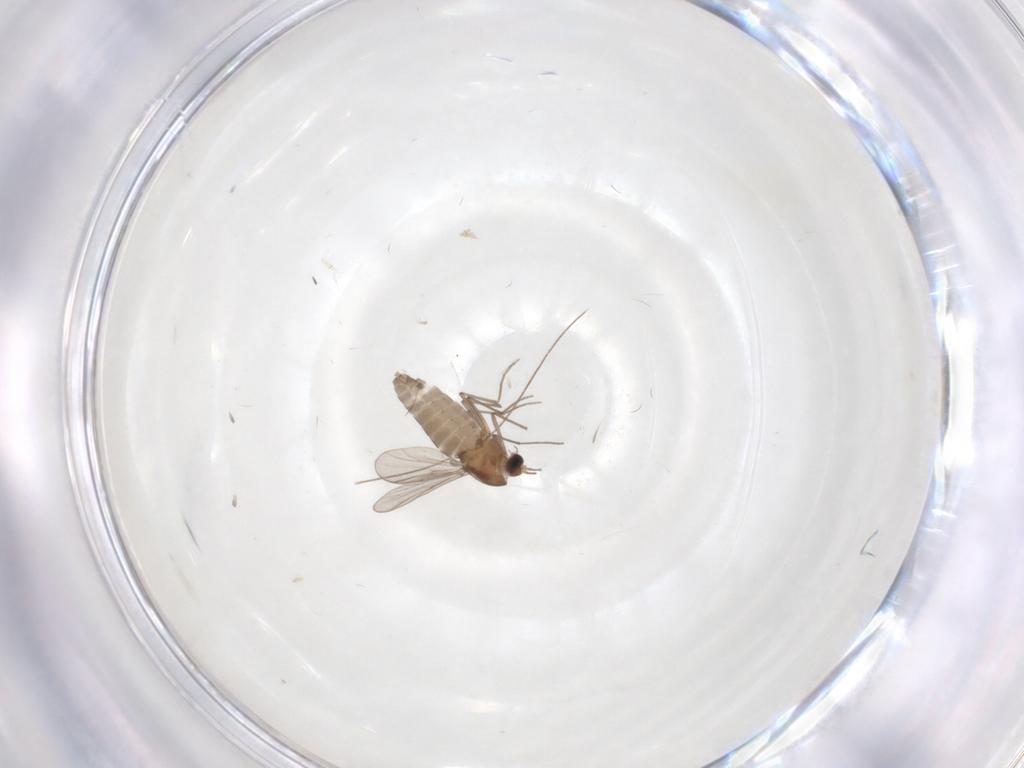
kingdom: Animalia
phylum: Arthropoda
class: Insecta
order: Diptera
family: Chironomidae
